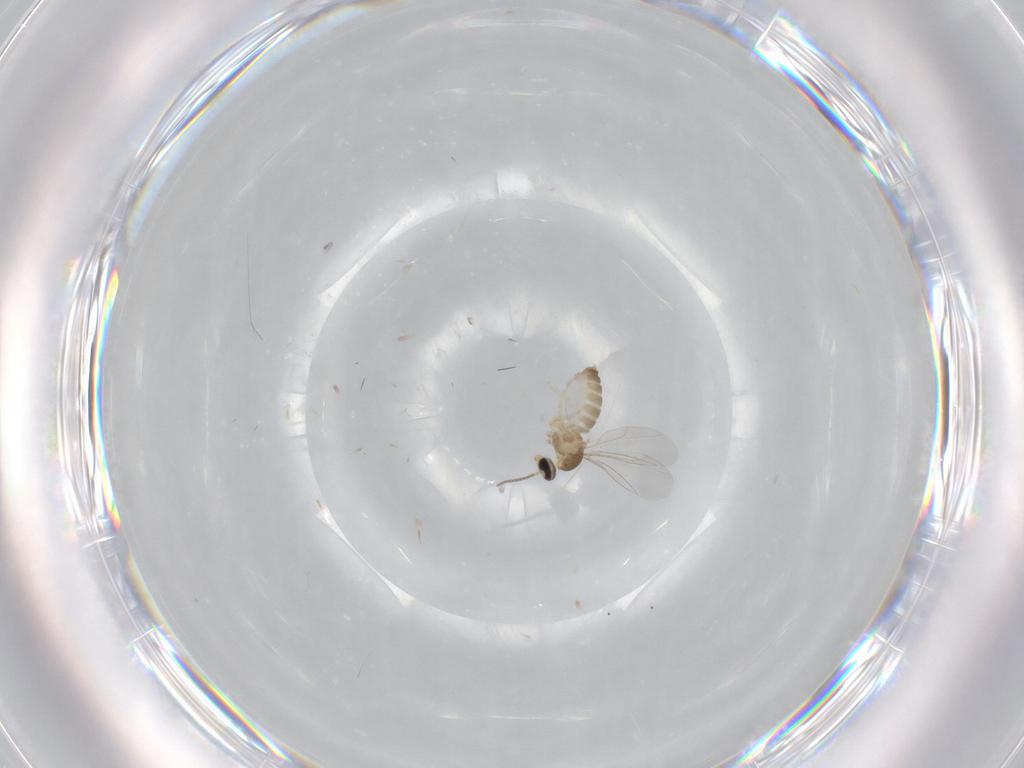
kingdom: Animalia
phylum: Arthropoda
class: Insecta
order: Diptera
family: Cecidomyiidae
